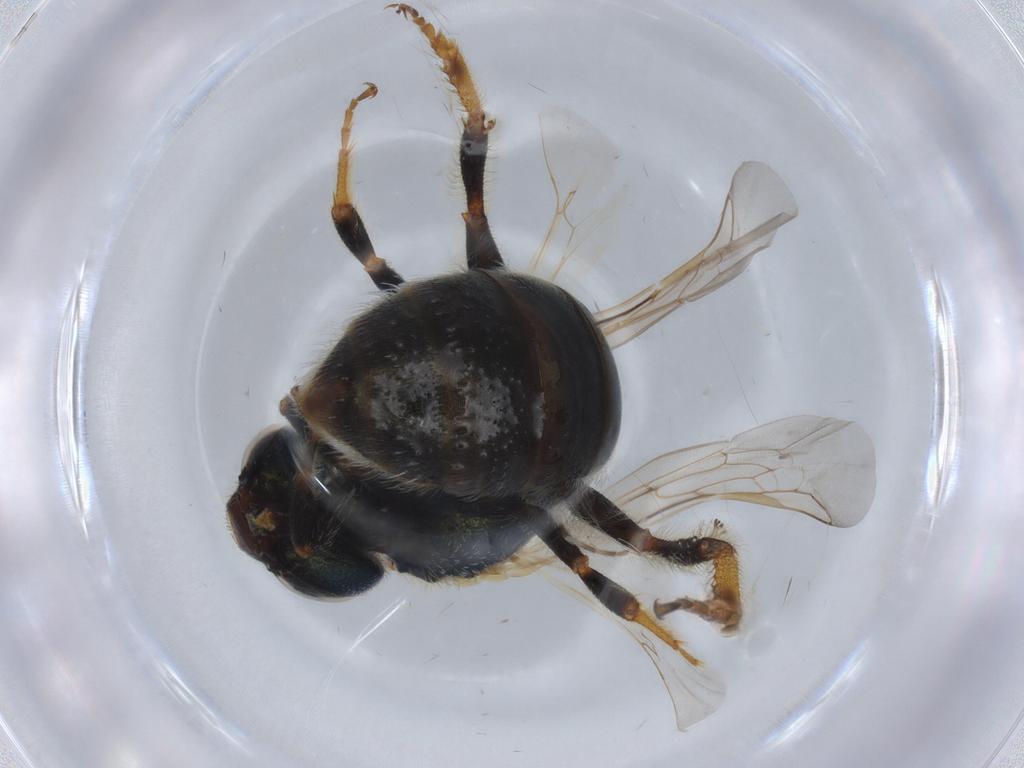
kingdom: Animalia
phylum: Arthropoda
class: Insecta
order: Hymenoptera
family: Halictidae
